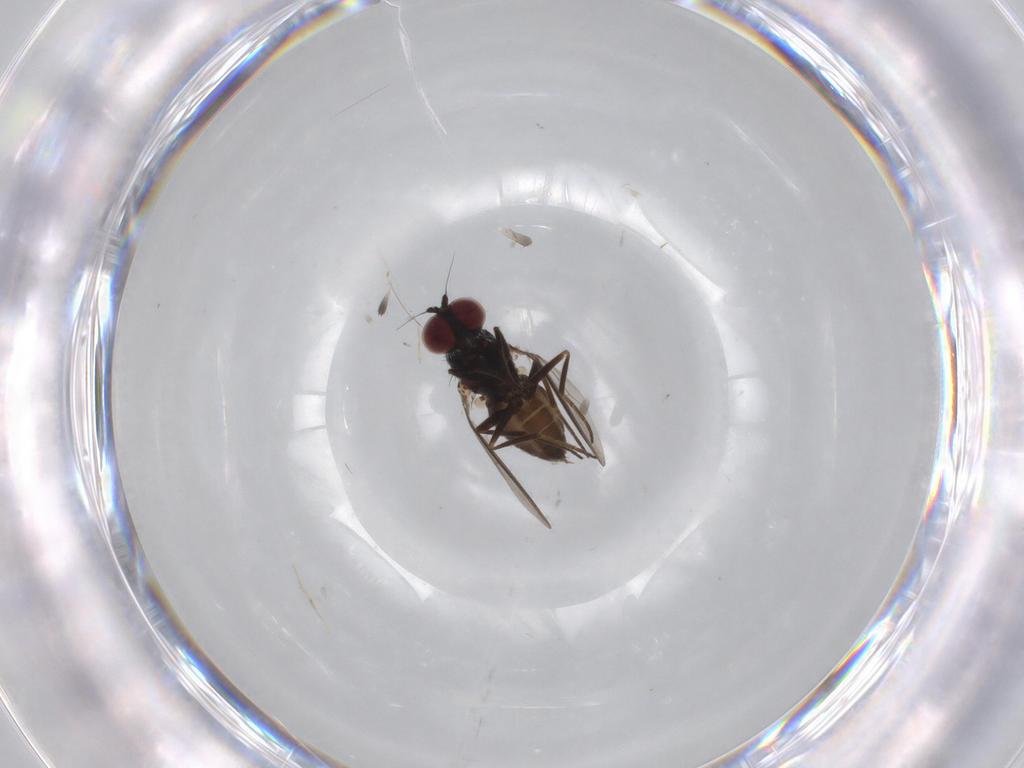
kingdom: Animalia
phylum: Arthropoda
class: Insecta
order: Diptera
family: Dolichopodidae
